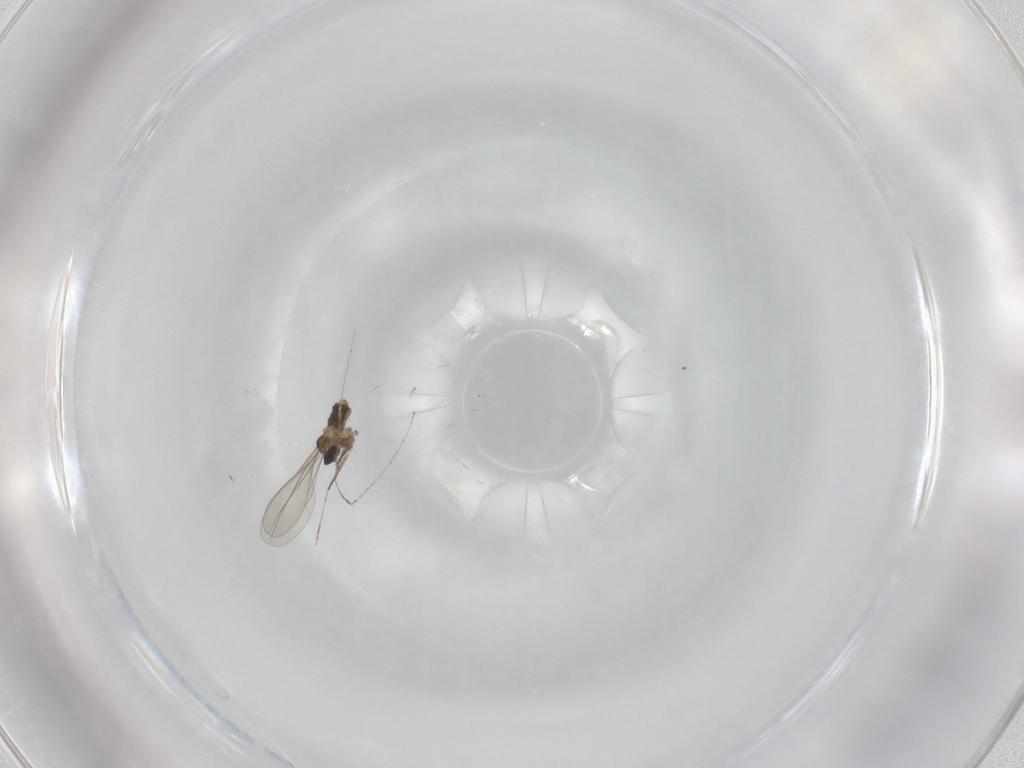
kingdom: Animalia
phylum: Arthropoda
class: Insecta
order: Diptera
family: Cecidomyiidae
